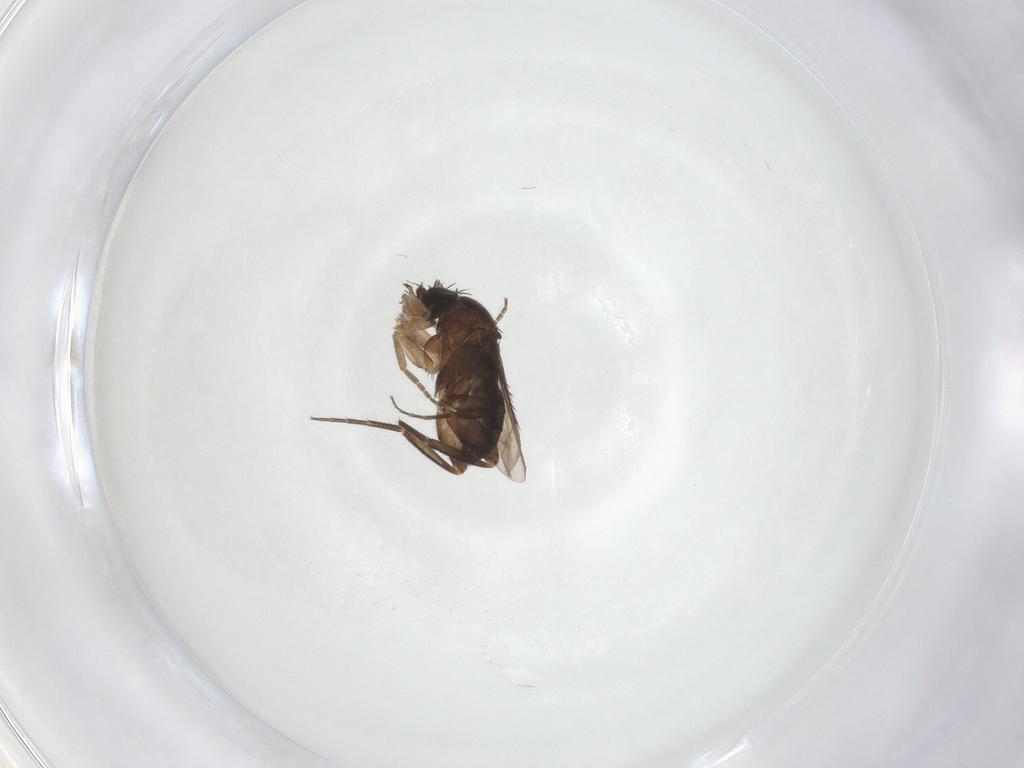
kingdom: Animalia
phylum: Arthropoda
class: Insecta
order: Diptera
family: Phoridae
